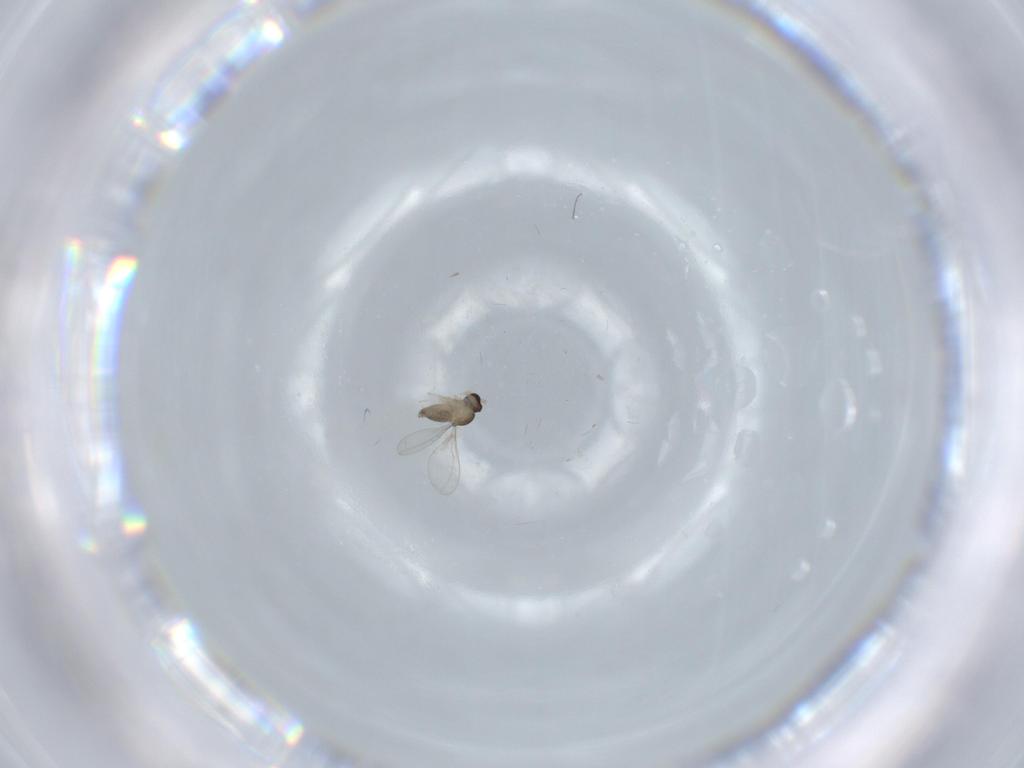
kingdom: Animalia
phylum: Arthropoda
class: Insecta
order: Diptera
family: Cecidomyiidae
